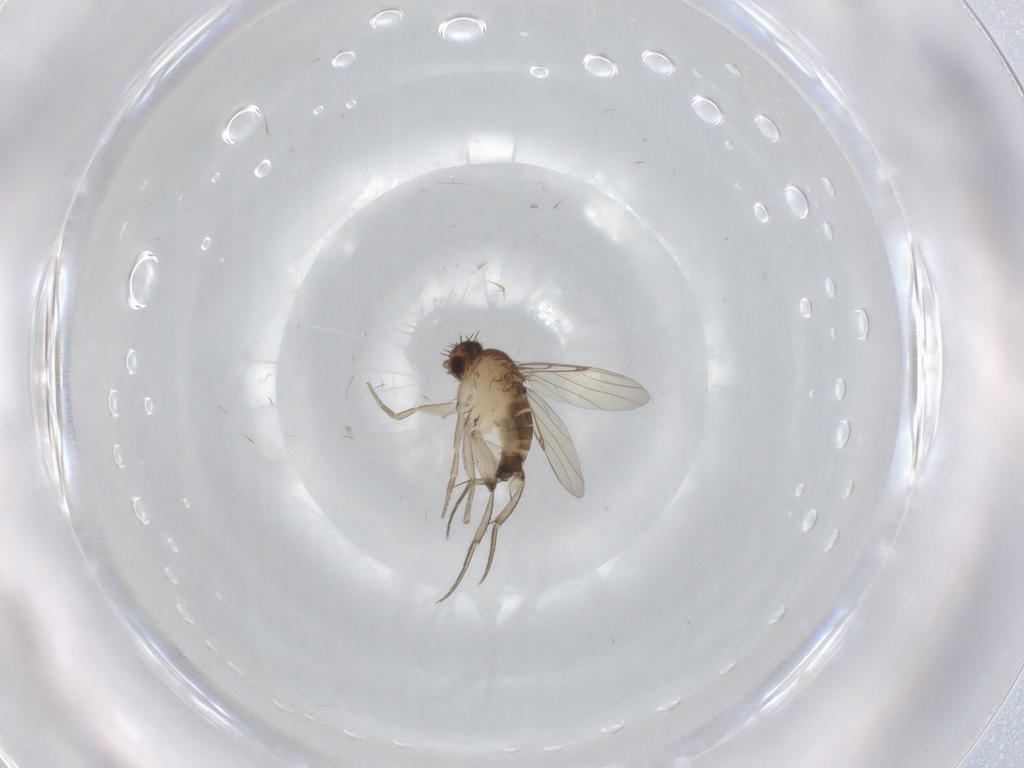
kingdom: Animalia
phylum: Arthropoda
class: Insecta
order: Diptera
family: Phoridae
